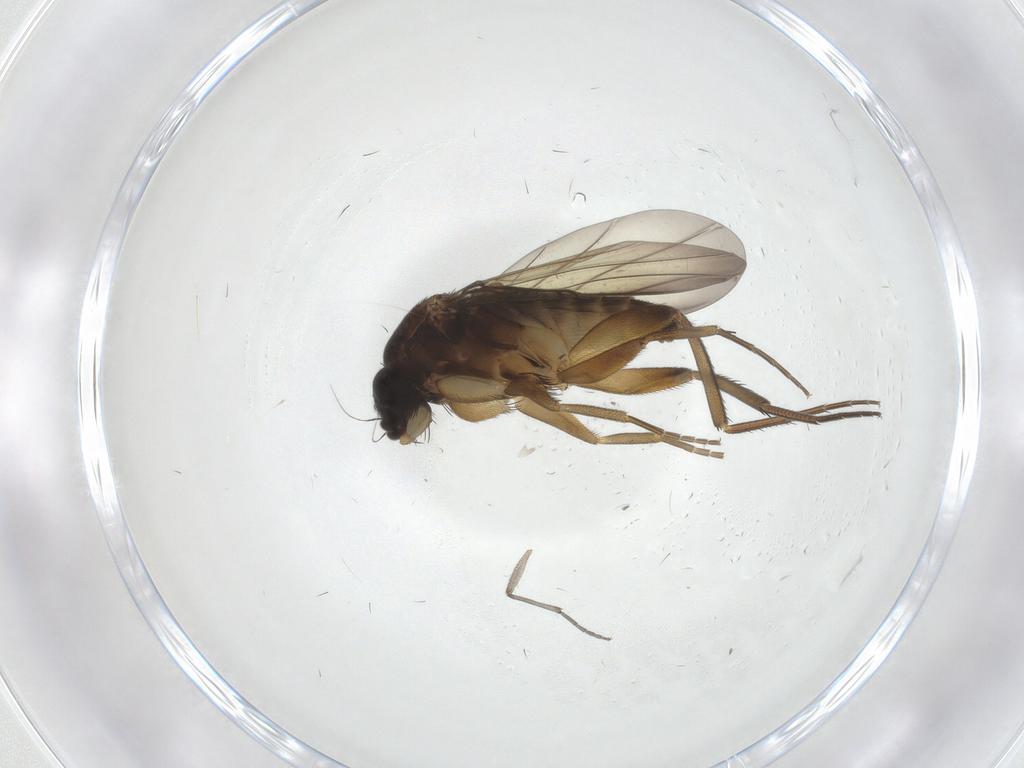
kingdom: Animalia
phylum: Arthropoda
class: Insecta
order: Diptera
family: Phoridae
